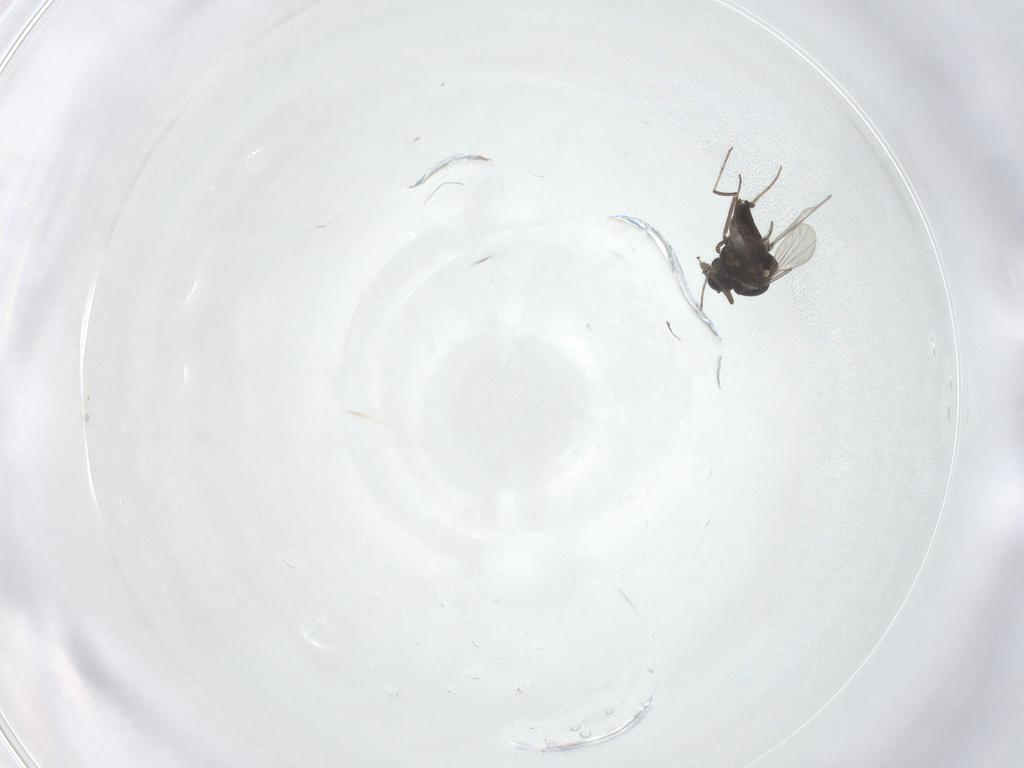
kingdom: Animalia
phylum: Arthropoda
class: Insecta
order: Diptera
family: Ceratopogonidae
